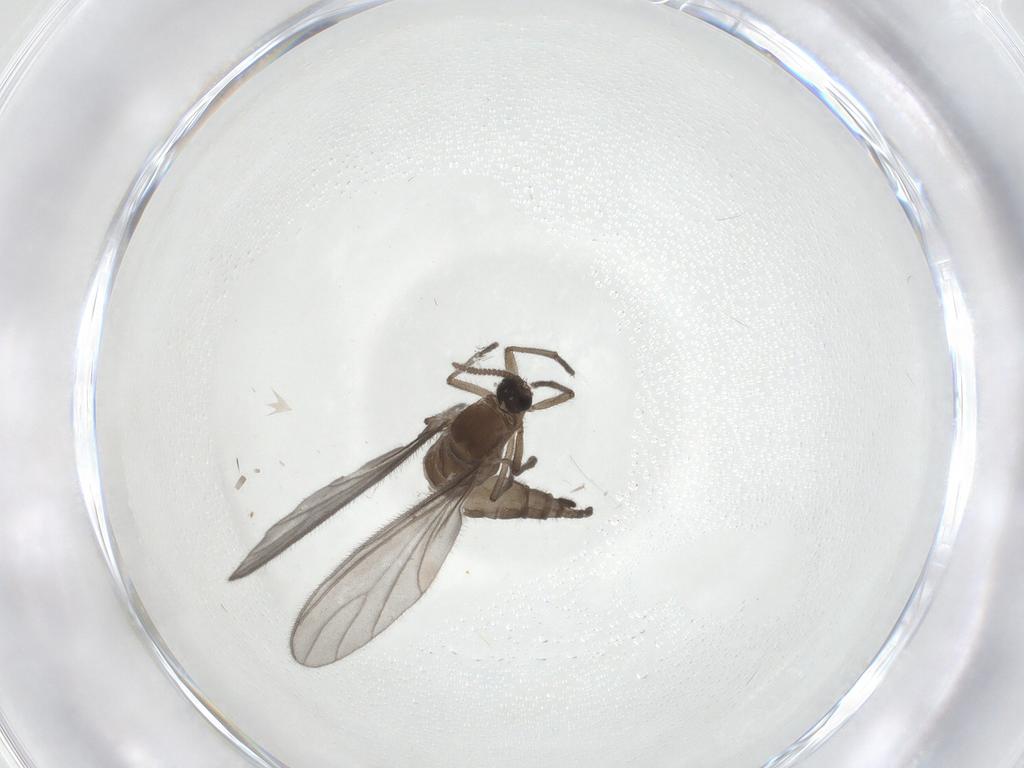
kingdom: Animalia
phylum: Arthropoda
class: Insecta
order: Diptera
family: Sciaridae
